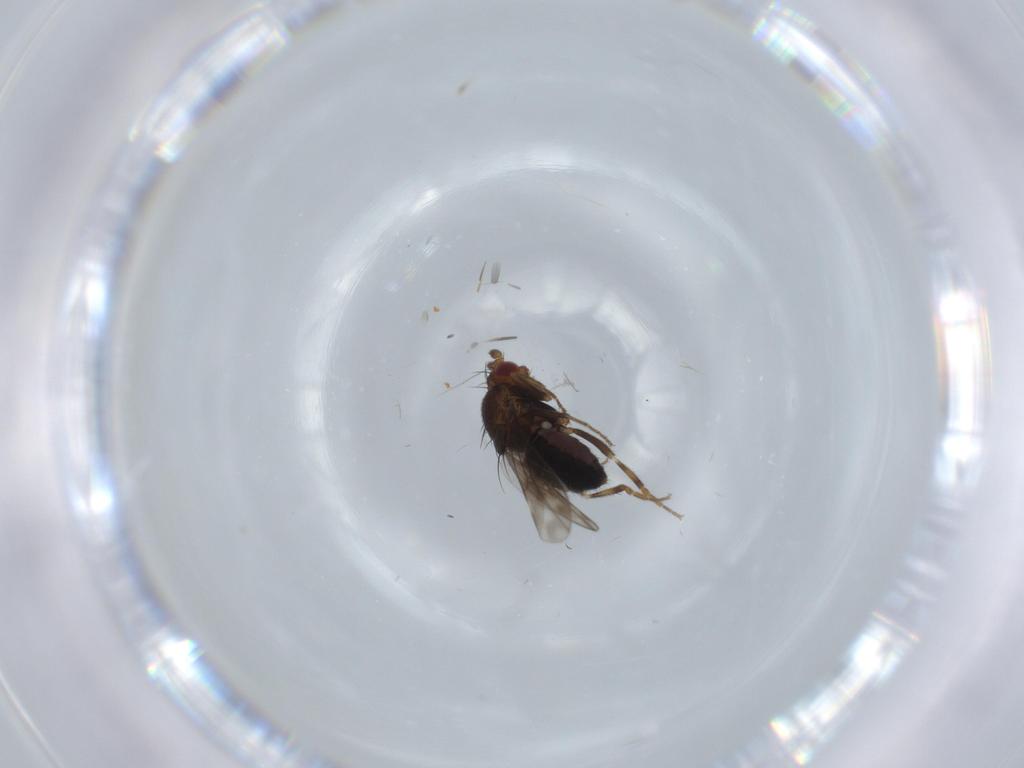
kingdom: Animalia
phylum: Arthropoda
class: Insecta
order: Diptera
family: Sphaeroceridae
